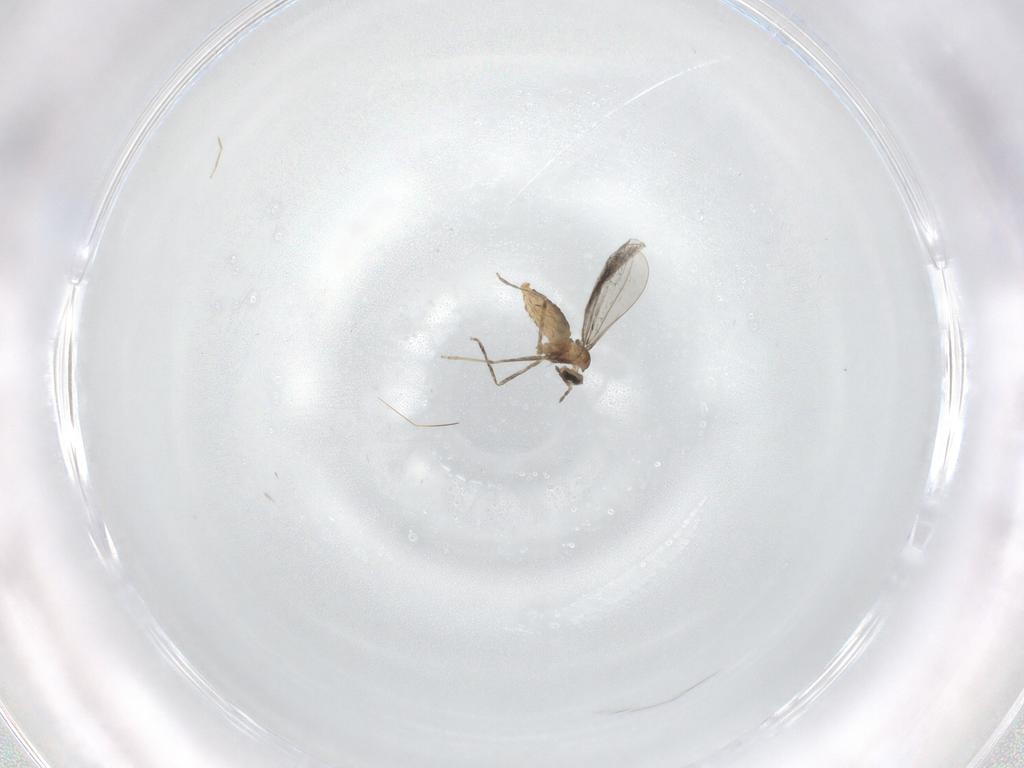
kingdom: Animalia
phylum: Arthropoda
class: Insecta
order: Diptera
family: Cecidomyiidae
